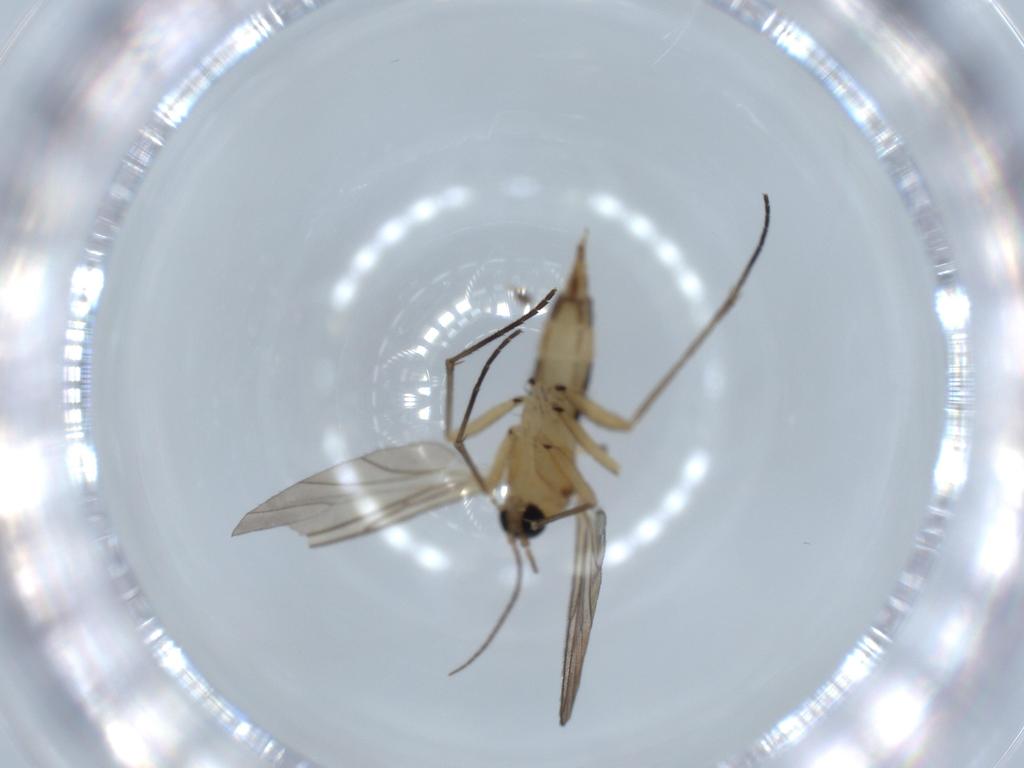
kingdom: Animalia
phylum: Arthropoda
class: Insecta
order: Diptera
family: Sciaridae
